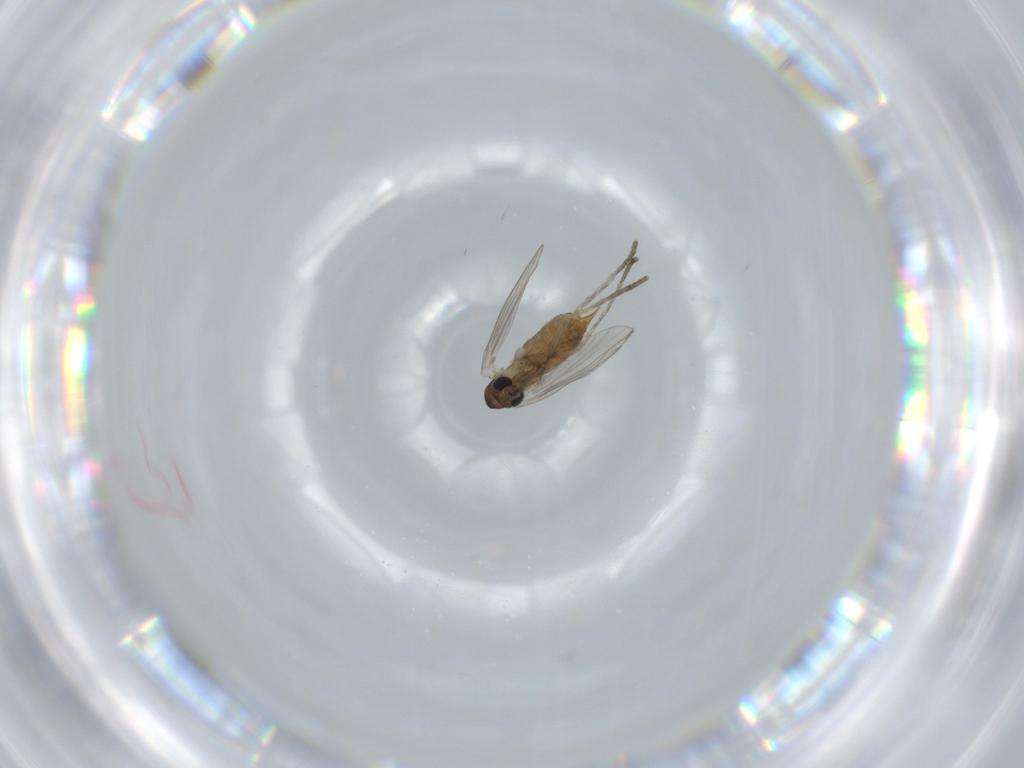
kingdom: Animalia
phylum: Arthropoda
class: Insecta
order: Diptera
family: Psychodidae
